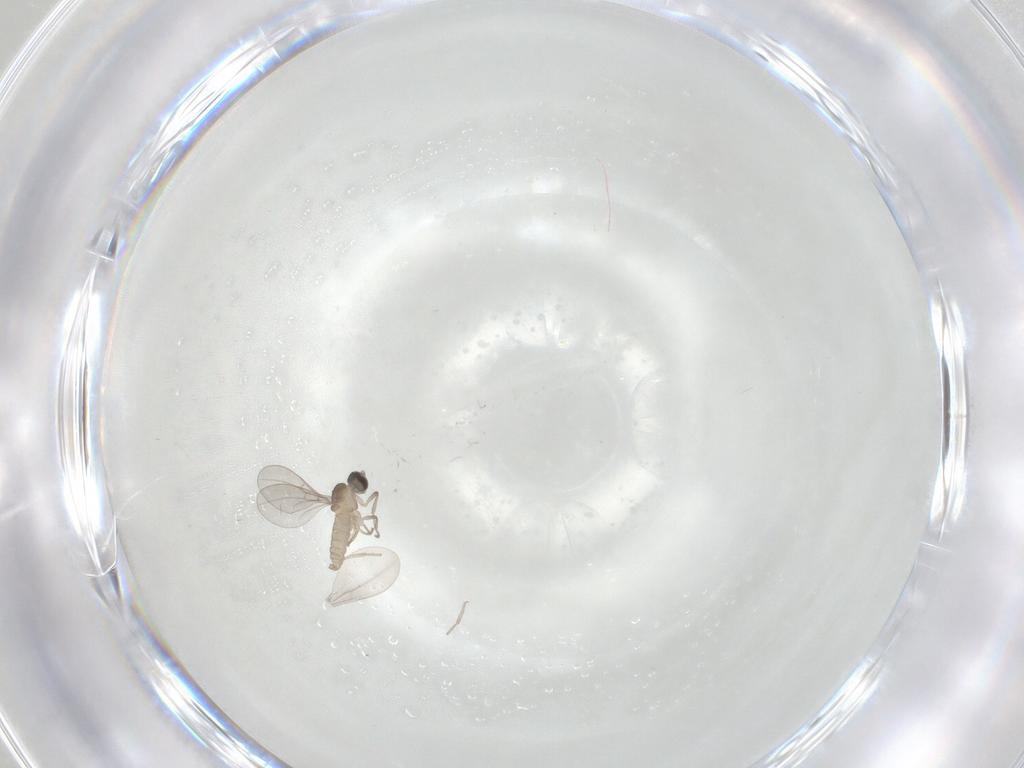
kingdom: Animalia
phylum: Arthropoda
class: Insecta
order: Diptera
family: Cecidomyiidae
